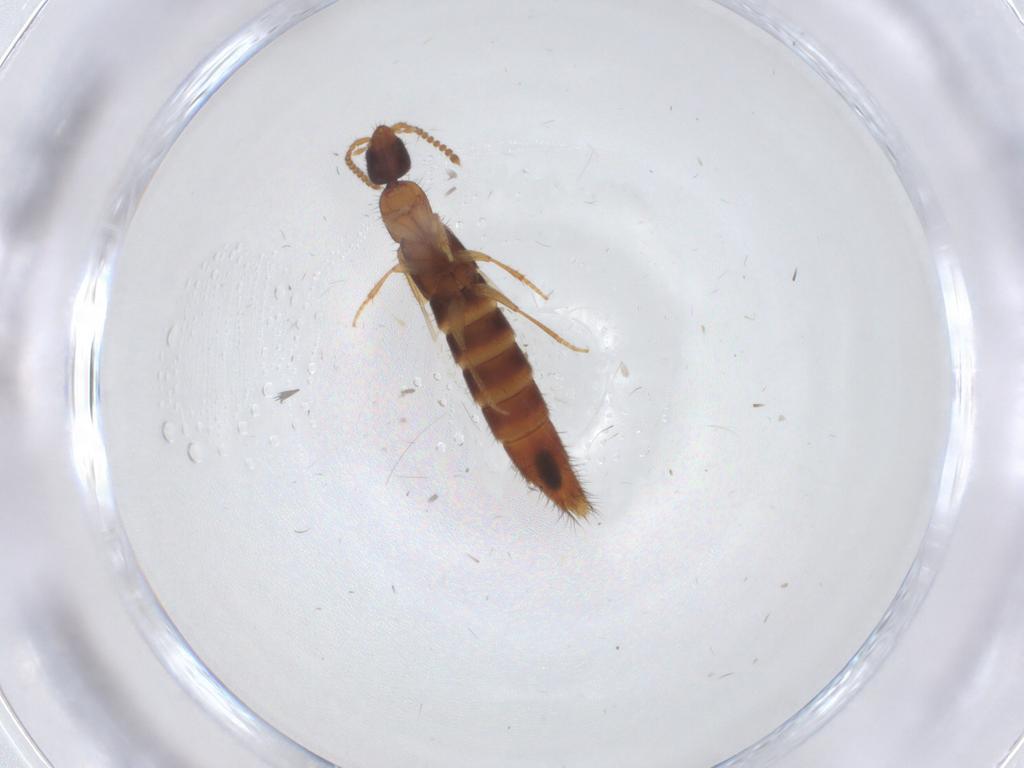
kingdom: Animalia
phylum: Arthropoda
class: Insecta
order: Coleoptera
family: Staphylinidae
